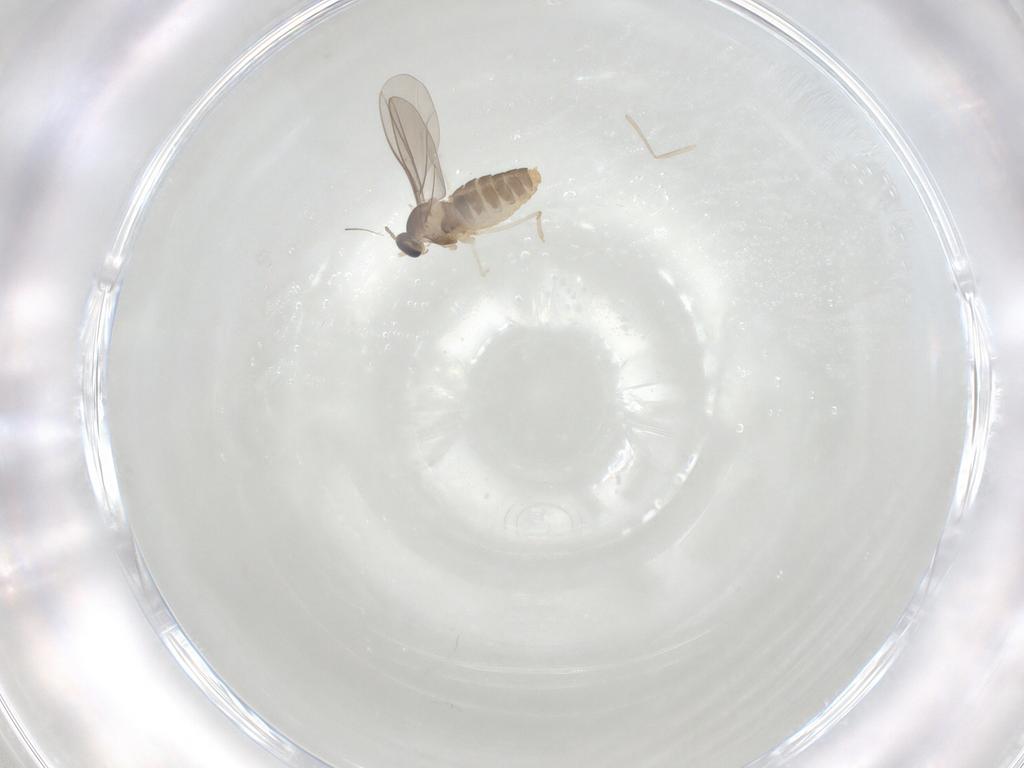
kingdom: Animalia
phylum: Arthropoda
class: Insecta
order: Diptera
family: Cecidomyiidae
